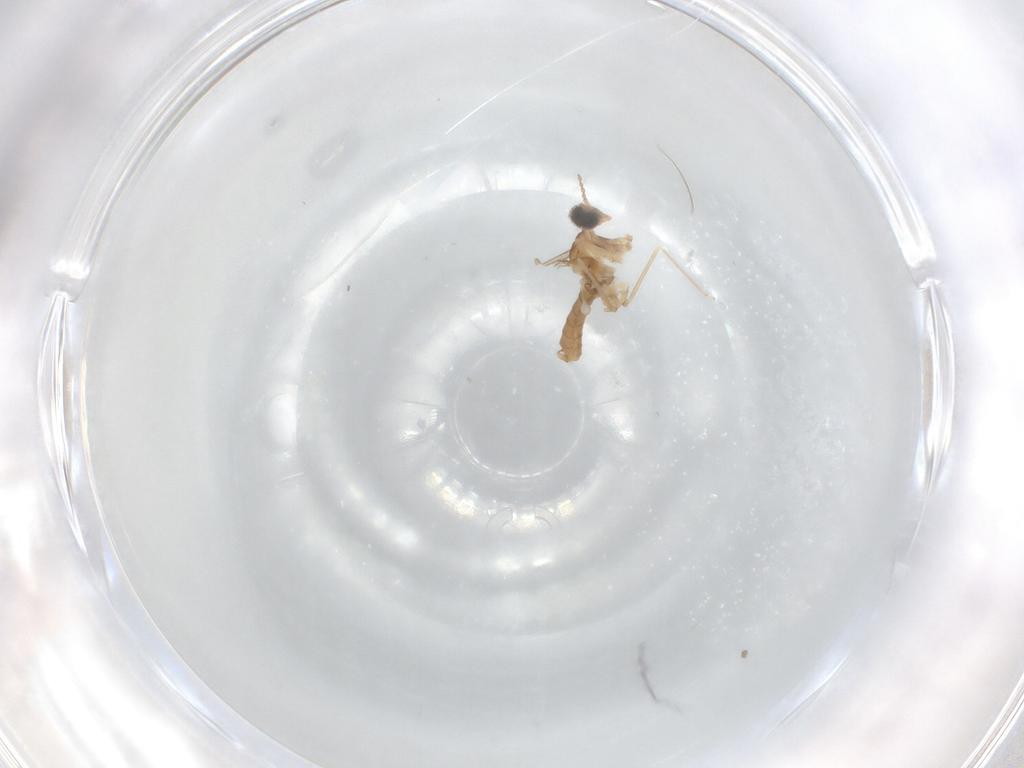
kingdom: Animalia
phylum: Arthropoda
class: Insecta
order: Diptera
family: Cecidomyiidae
